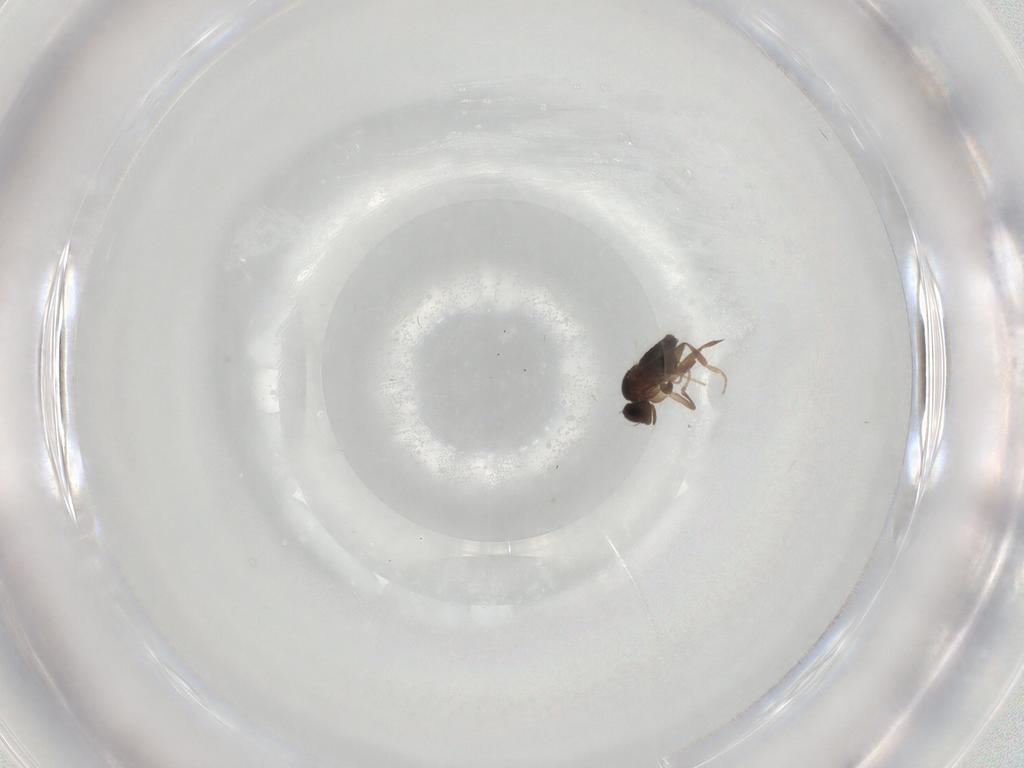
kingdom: Animalia
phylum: Arthropoda
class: Insecta
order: Diptera
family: Phoridae
